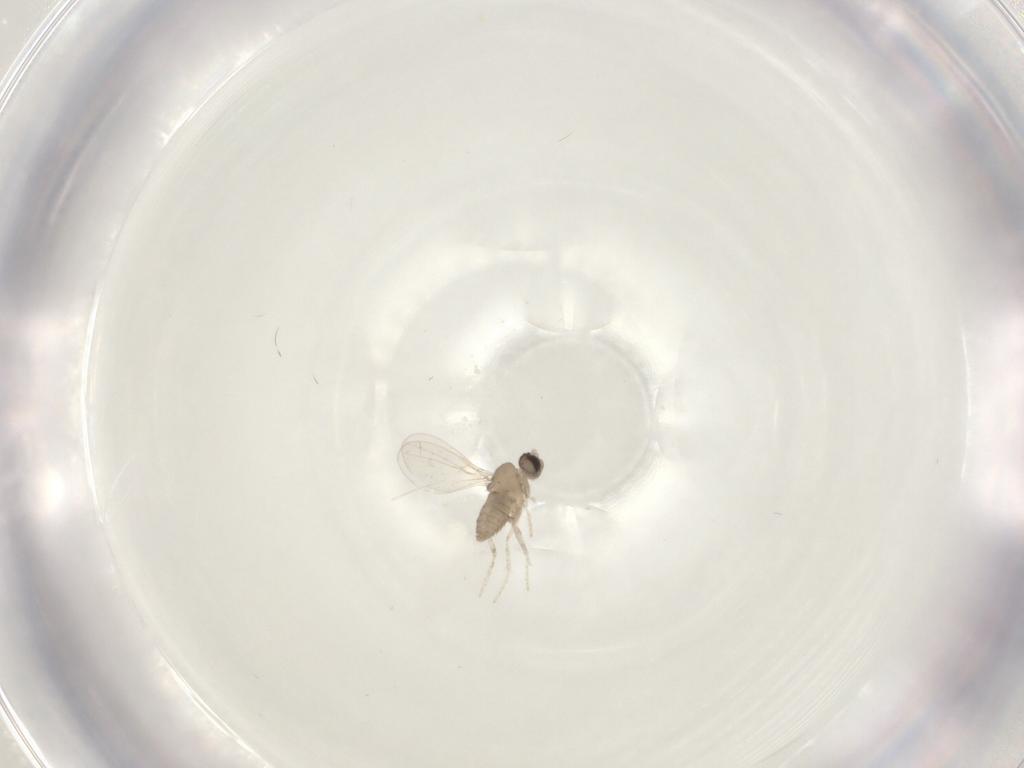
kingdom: Animalia
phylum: Arthropoda
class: Insecta
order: Diptera
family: Cecidomyiidae
